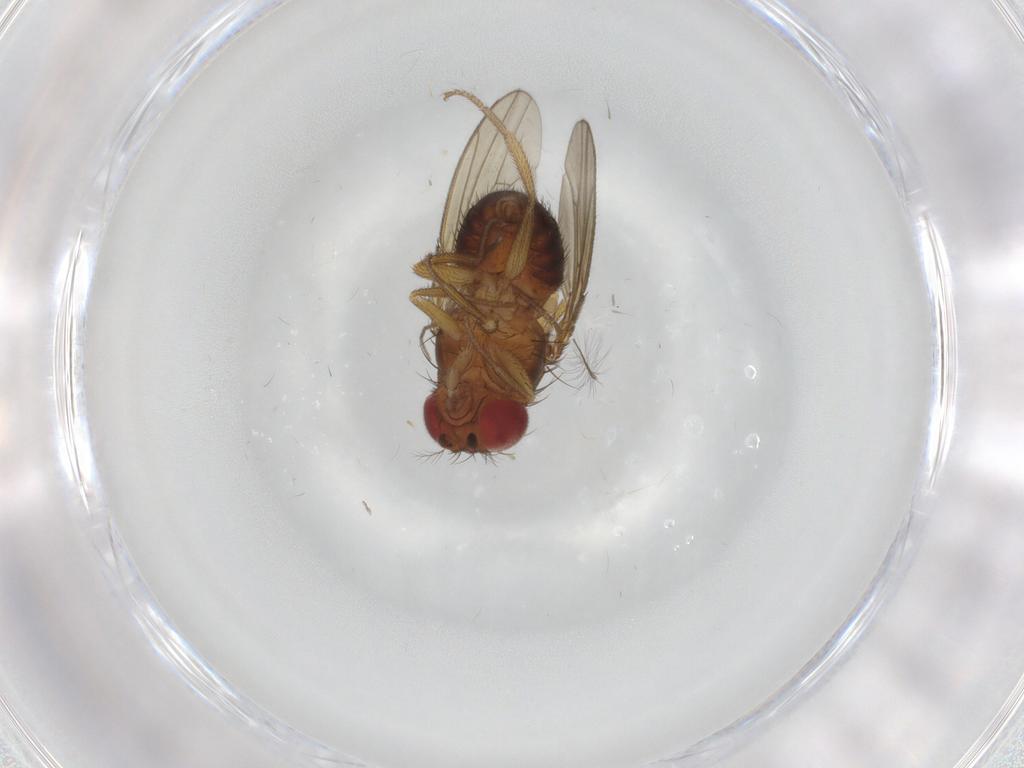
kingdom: Animalia
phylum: Arthropoda
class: Insecta
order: Diptera
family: Drosophilidae
